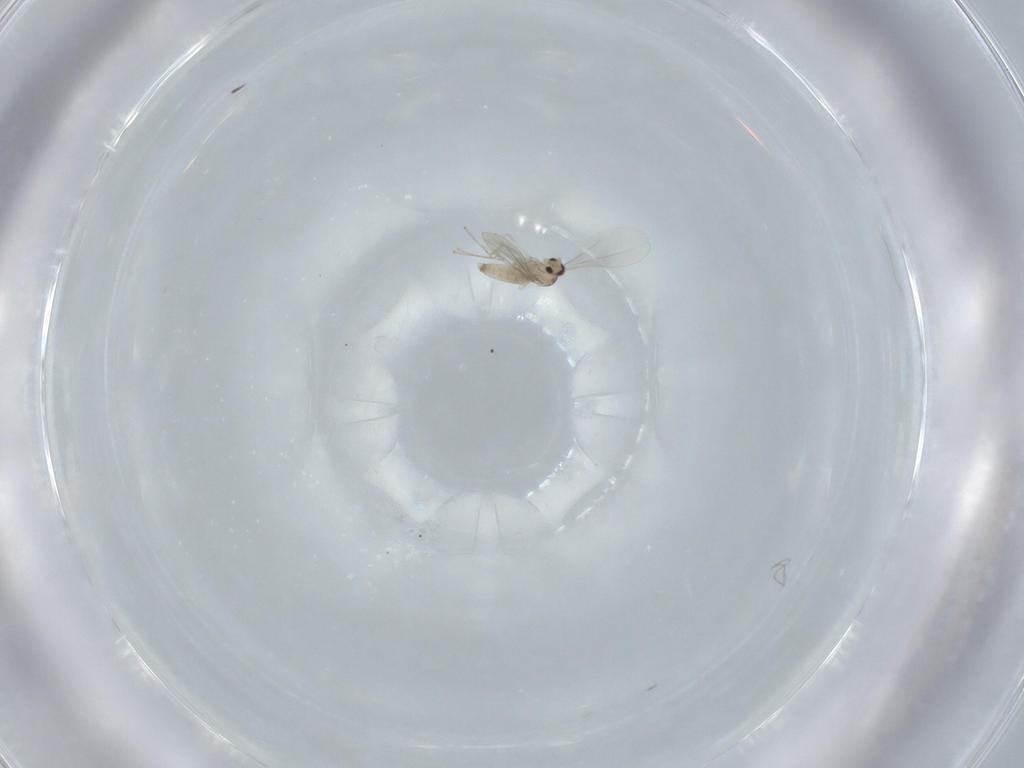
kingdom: Animalia
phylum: Arthropoda
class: Insecta
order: Diptera
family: Cecidomyiidae
